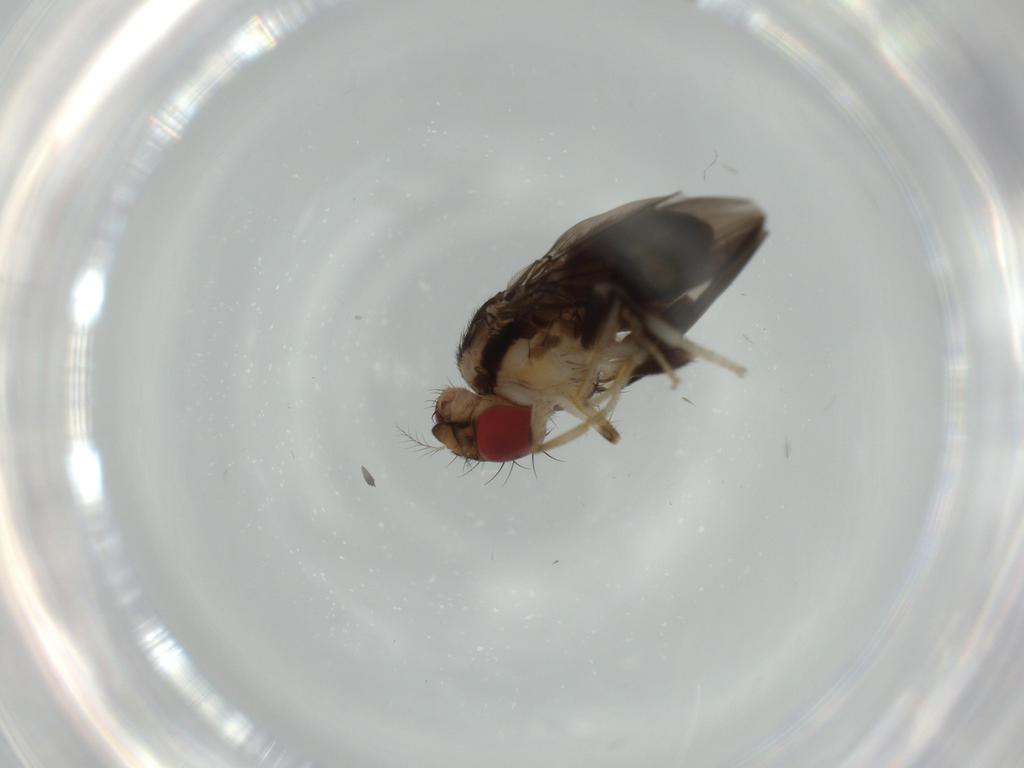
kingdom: Animalia
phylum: Arthropoda
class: Insecta
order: Diptera
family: Drosophilidae
